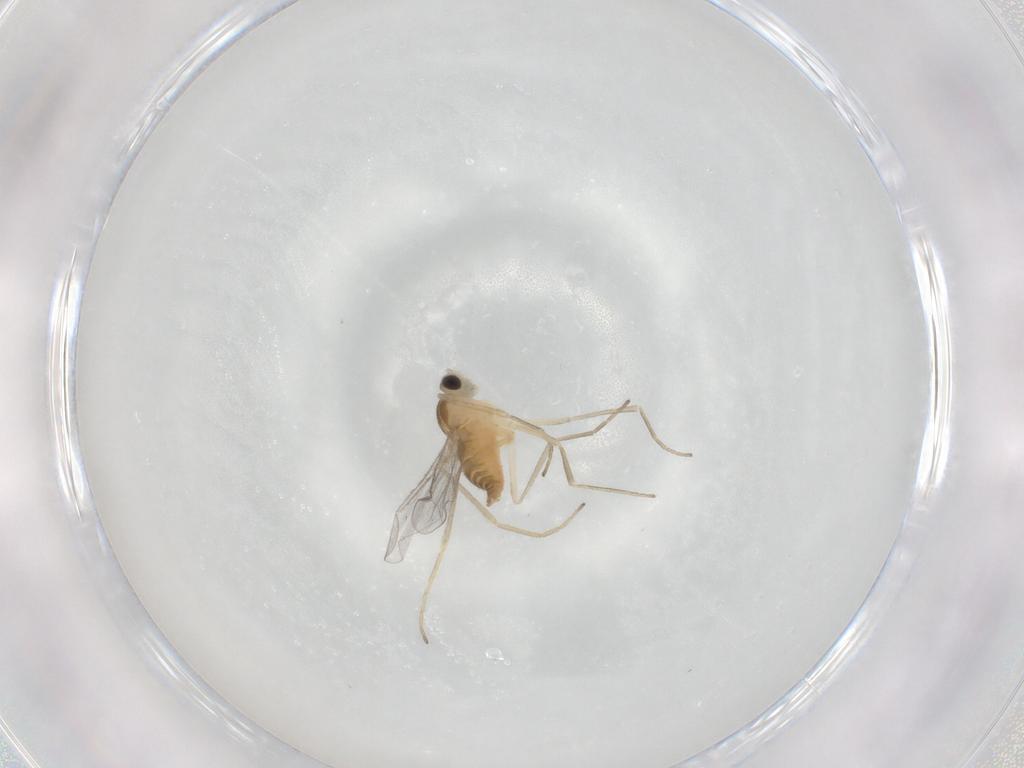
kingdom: Animalia
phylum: Arthropoda
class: Insecta
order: Diptera
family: Cecidomyiidae
